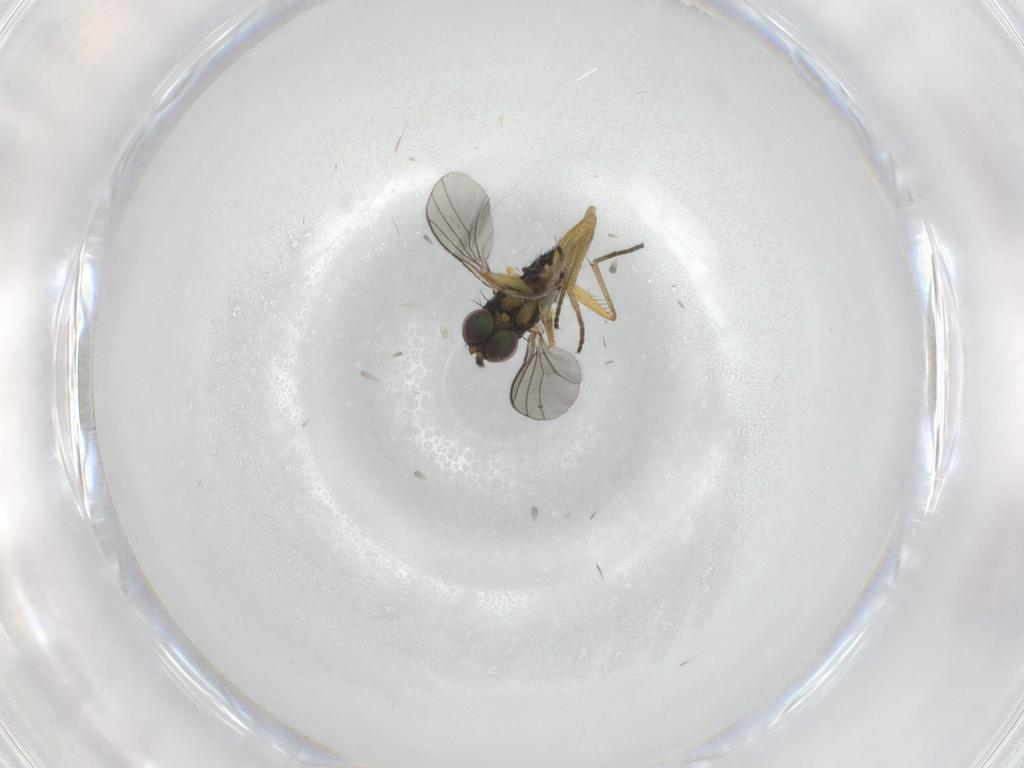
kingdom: Animalia
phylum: Arthropoda
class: Insecta
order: Diptera
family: Dolichopodidae
